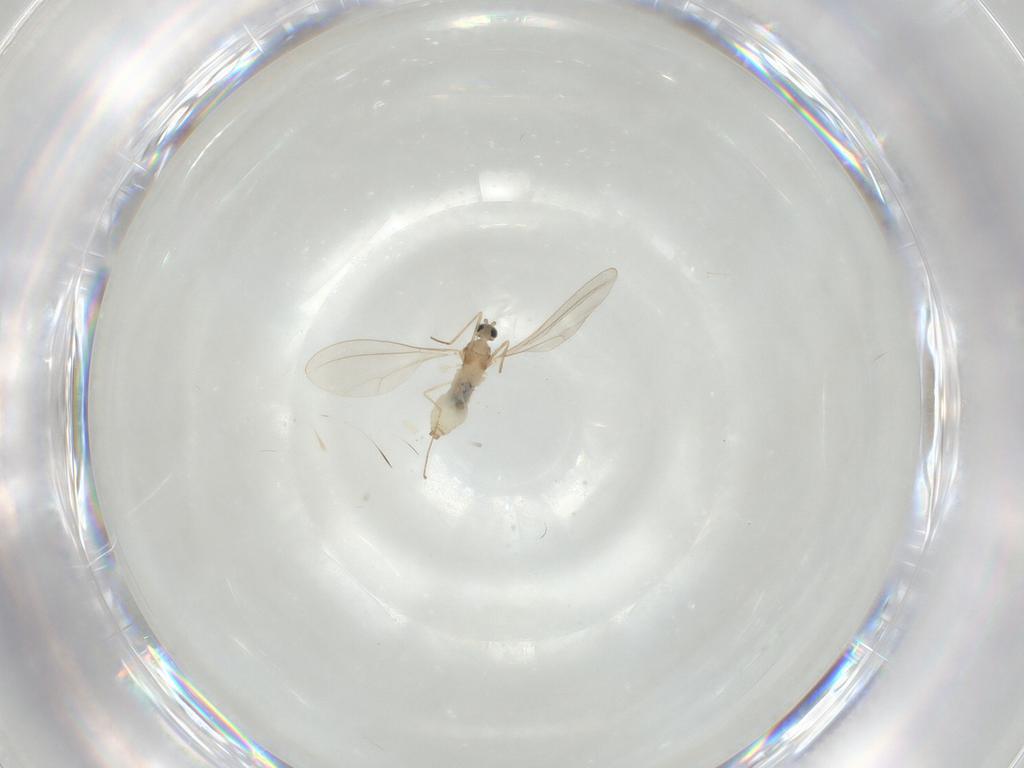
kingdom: Animalia
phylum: Arthropoda
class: Insecta
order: Diptera
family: Cecidomyiidae
